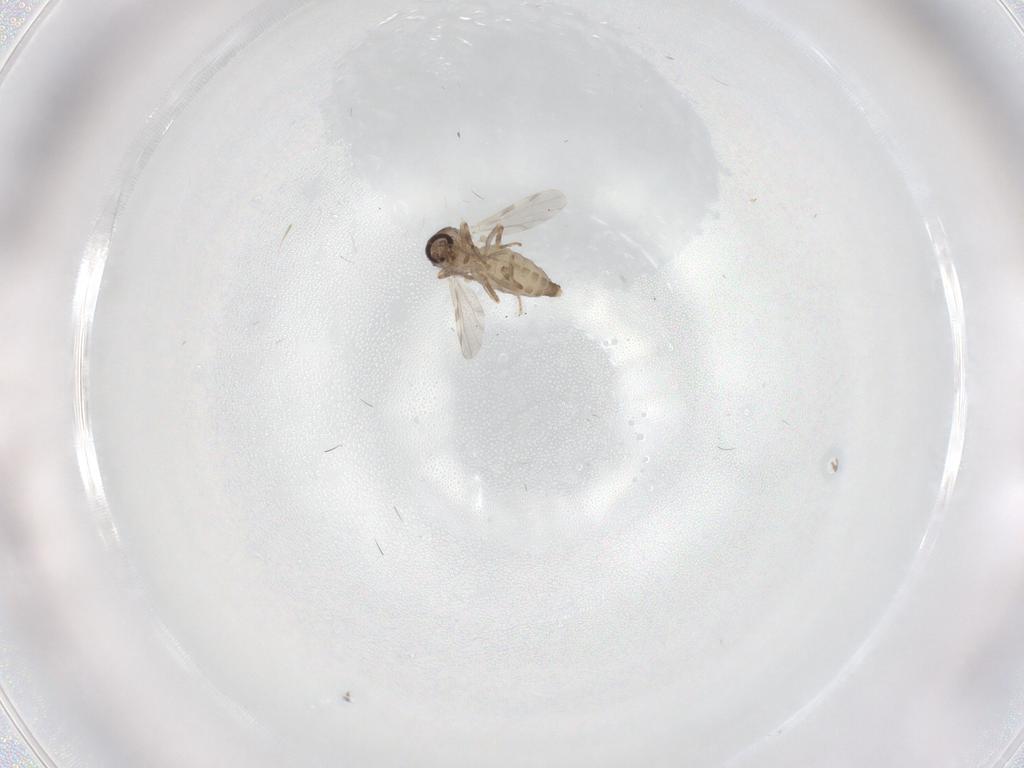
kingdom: Animalia
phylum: Arthropoda
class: Insecta
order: Diptera
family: Ceratopogonidae
